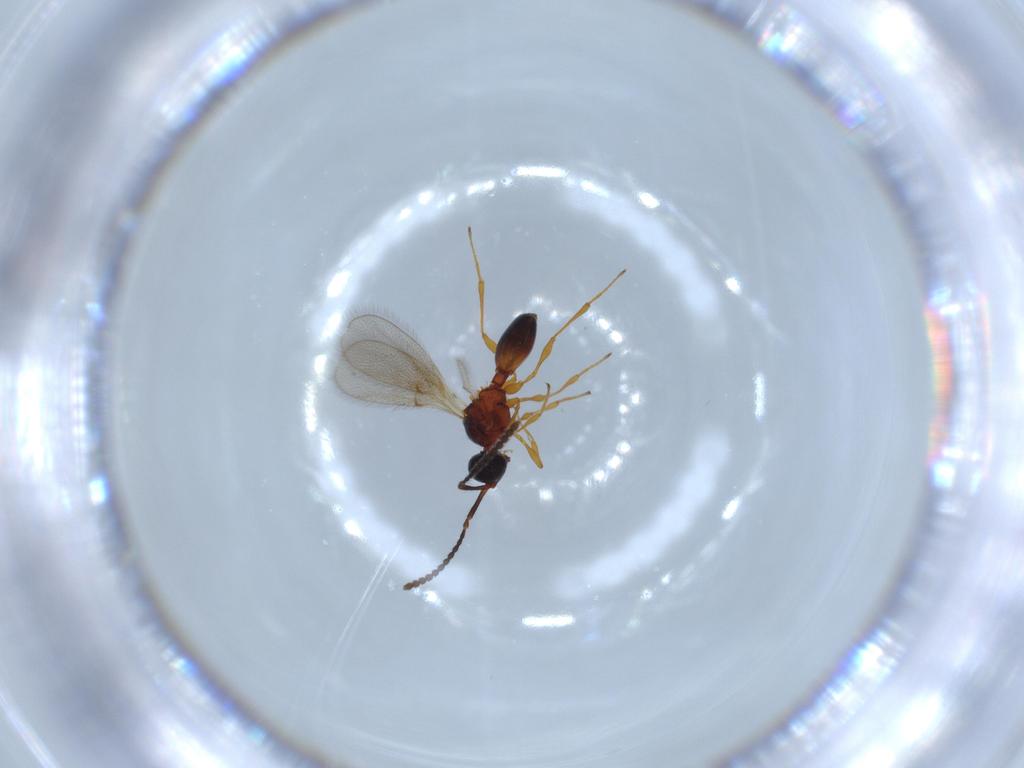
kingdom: Animalia
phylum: Arthropoda
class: Insecta
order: Hymenoptera
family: Diapriidae
